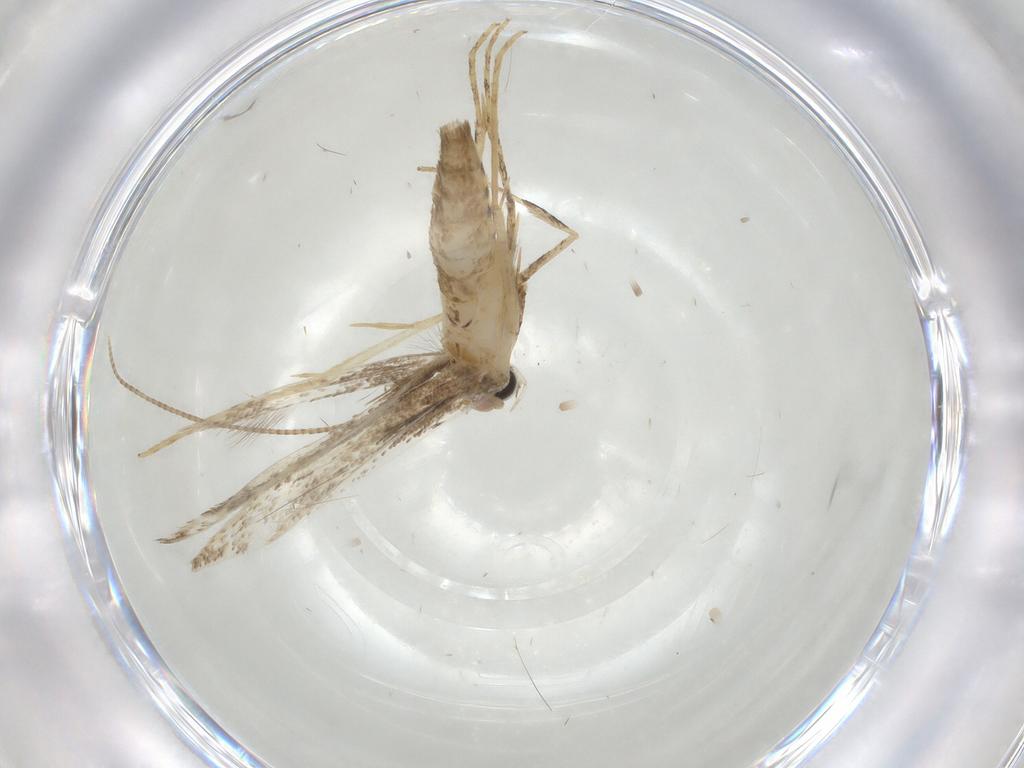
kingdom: Animalia
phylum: Arthropoda
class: Insecta
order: Lepidoptera
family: Gracillariidae
